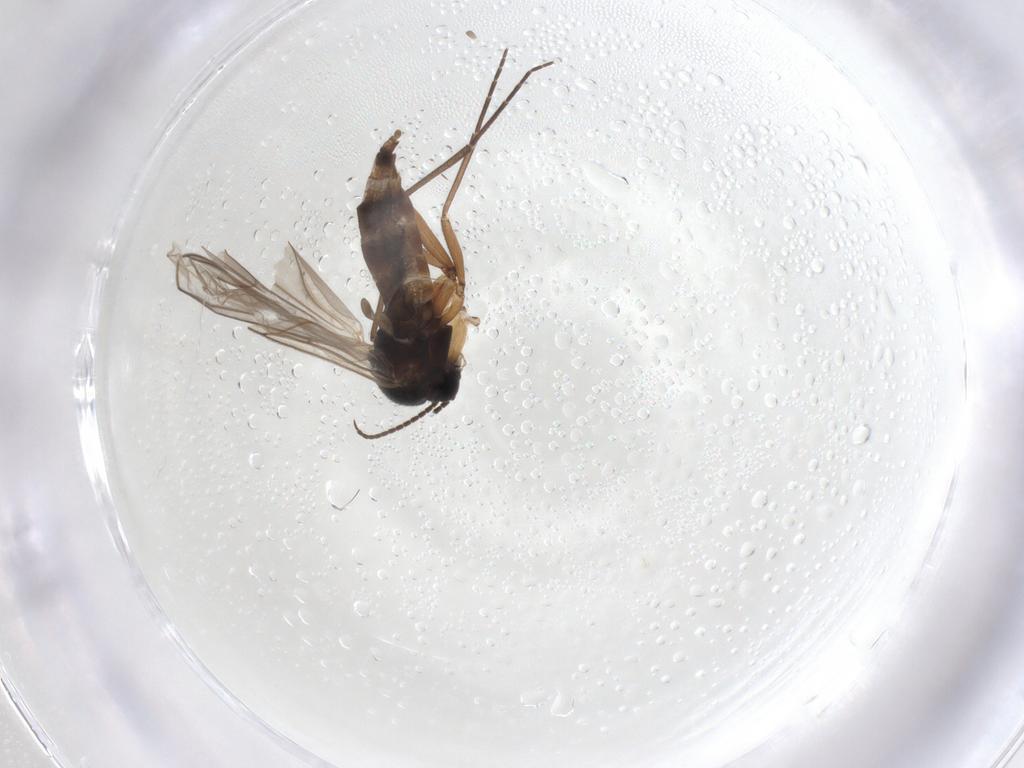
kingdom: Animalia
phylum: Arthropoda
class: Insecta
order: Diptera
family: Sciaridae
